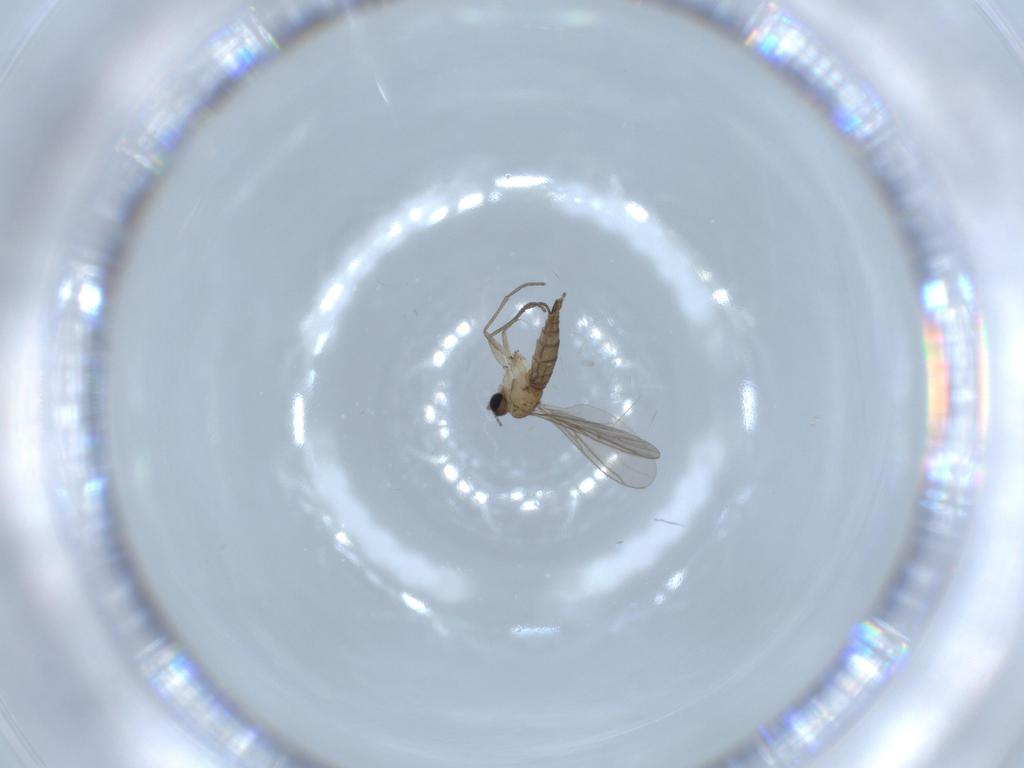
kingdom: Animalia
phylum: Arthropoda
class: Insecta
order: Diptera
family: Sciaridae
